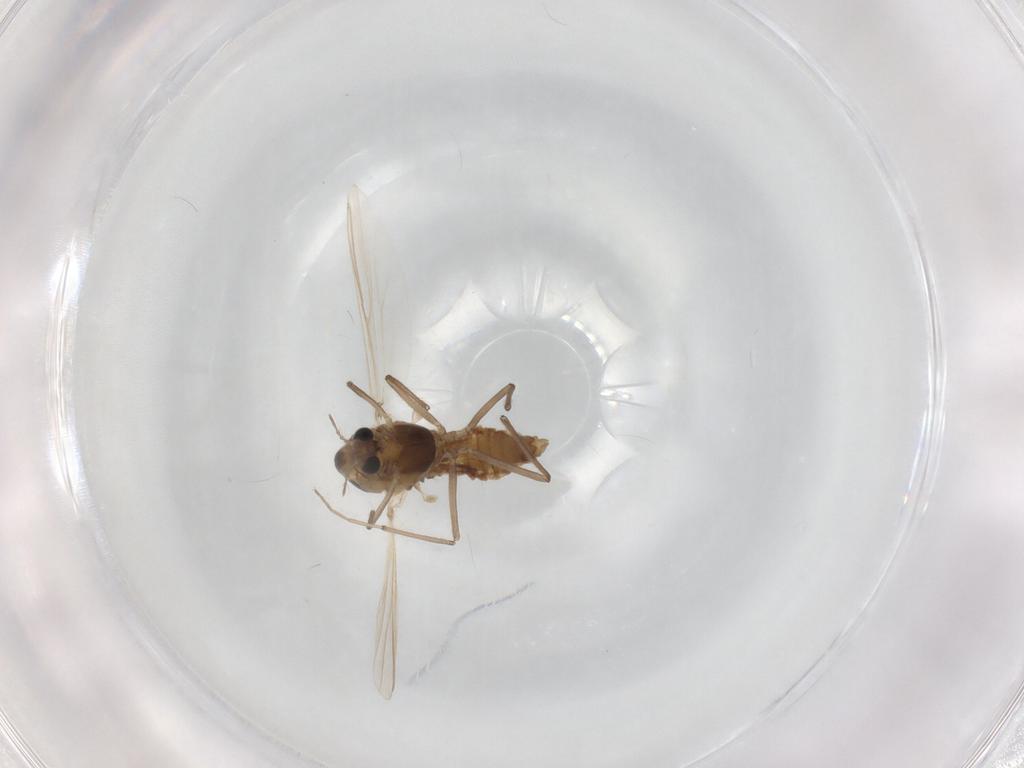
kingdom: Animalia
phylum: Arthropoda
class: Insecta
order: Diptera
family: Chironomidae
